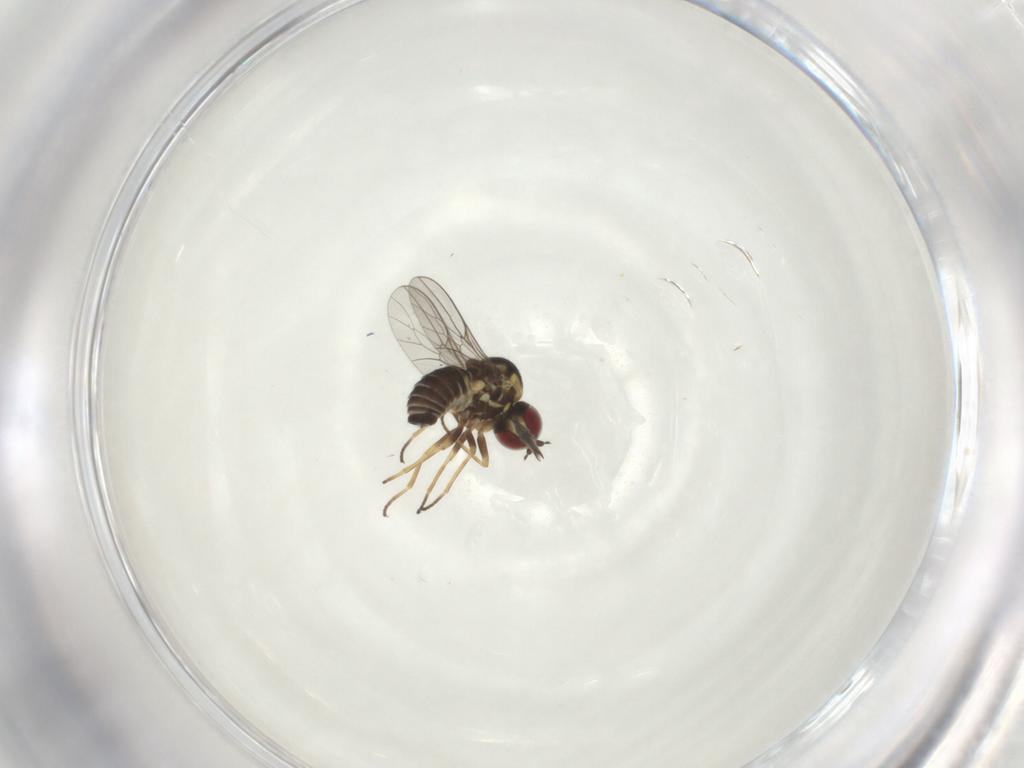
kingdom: Animalia
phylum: Arthropoda
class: Insecta
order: Diptera
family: Bombyliidae
